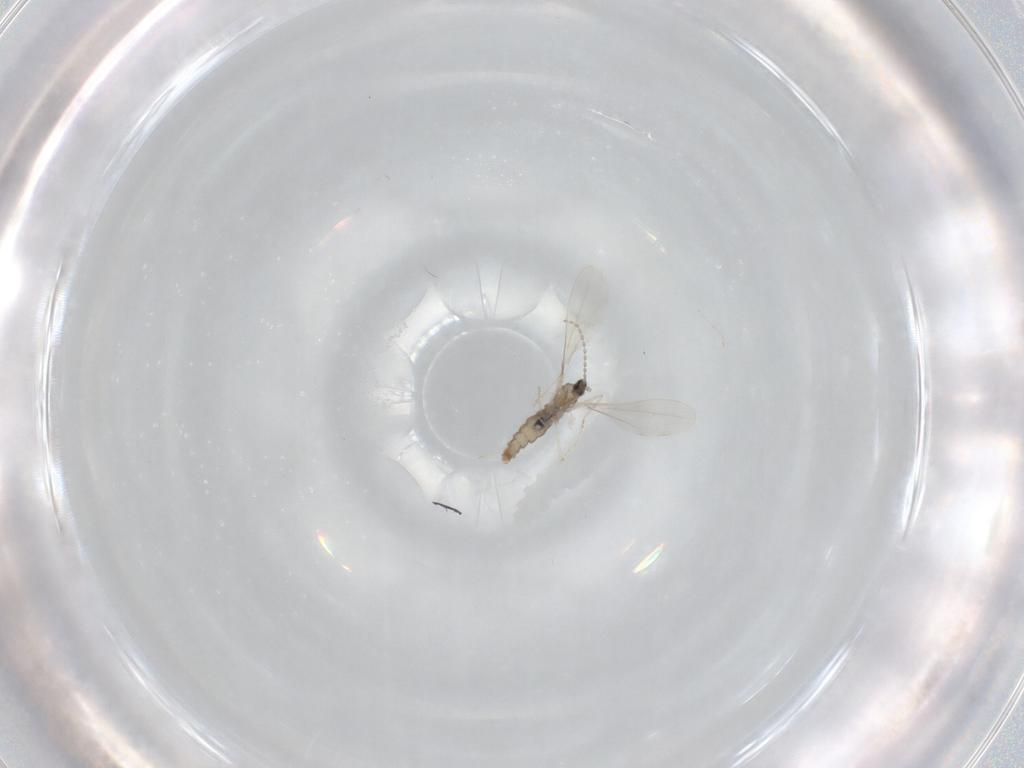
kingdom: Animalia
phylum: Arthropoda
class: Insecta
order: Diptera
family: Cecidomyiidae
